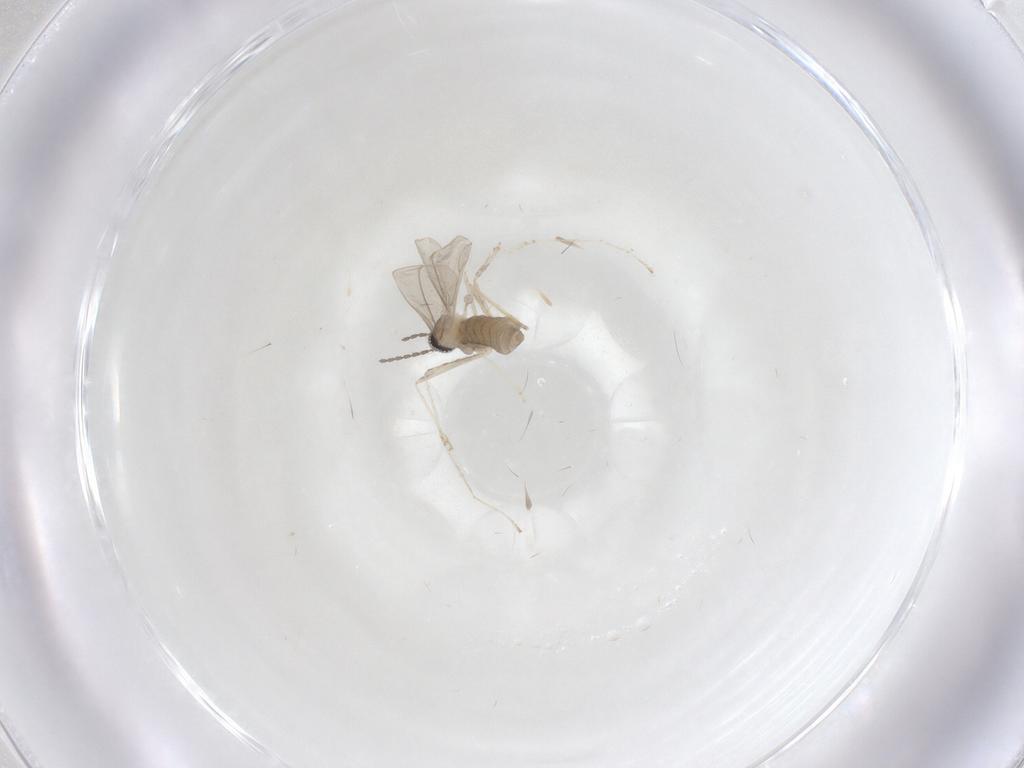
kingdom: Animalia
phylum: Arthropoda
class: Insecta
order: Diptera
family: Cecidomyiidae
